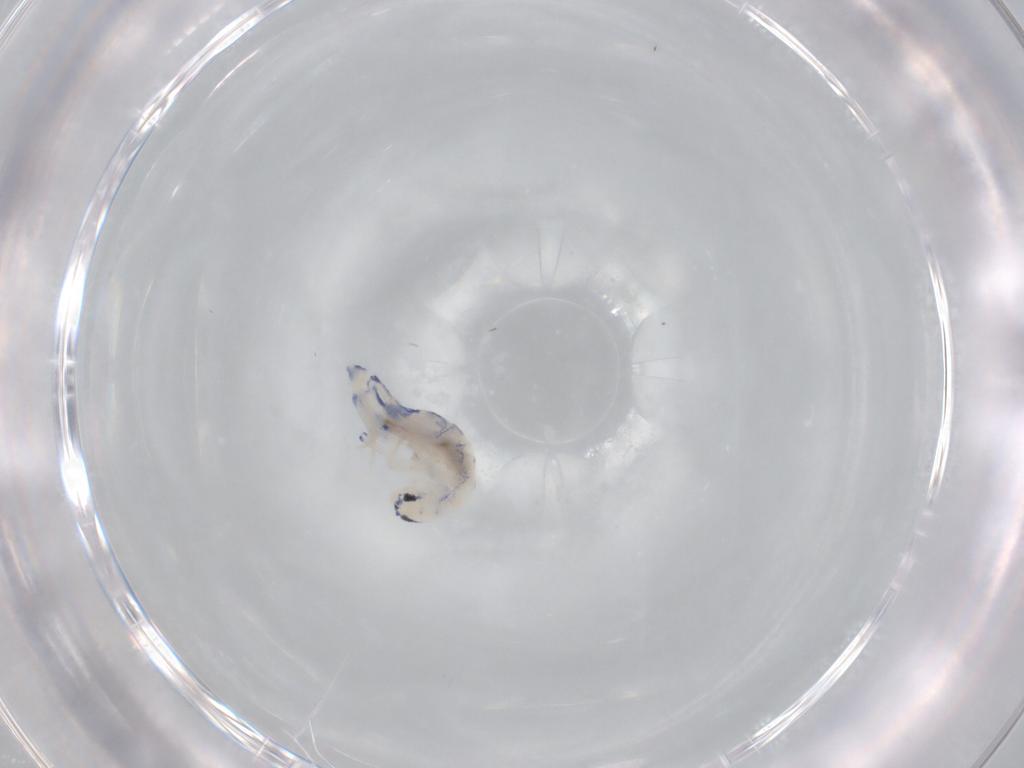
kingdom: Animalia
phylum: Arthropoda
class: Collembola
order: Entomobryomorpha
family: Entomobryidae
